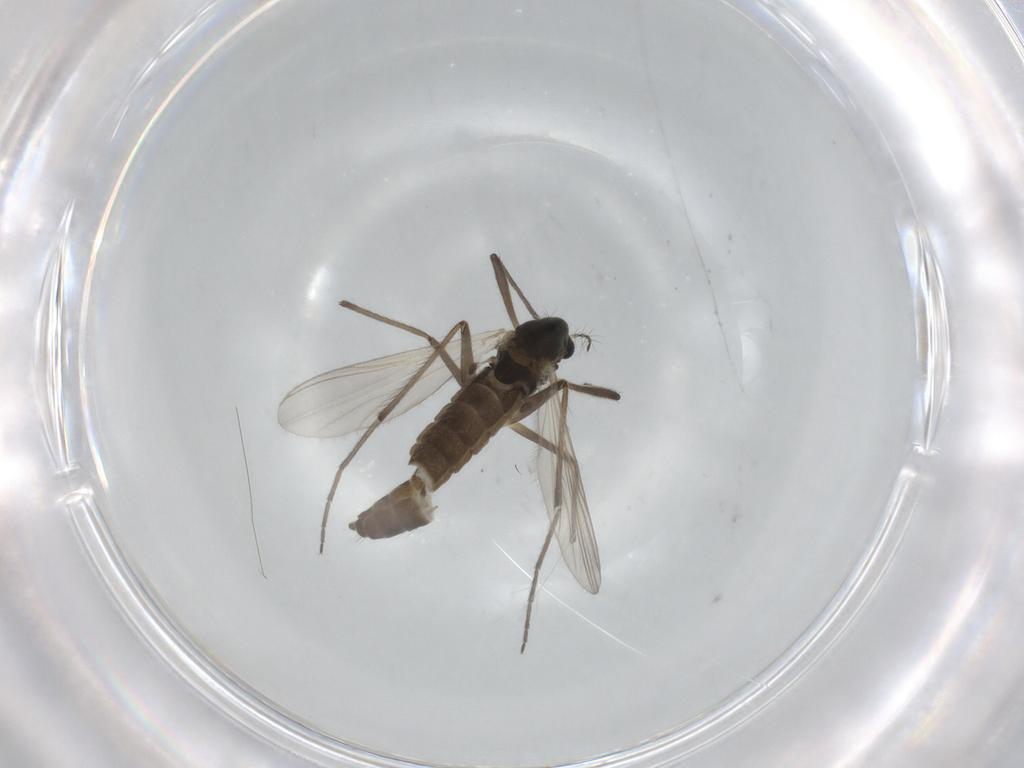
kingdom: Animalia
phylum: Arthropoda
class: Insecta
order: Diptera
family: Chironomidae
